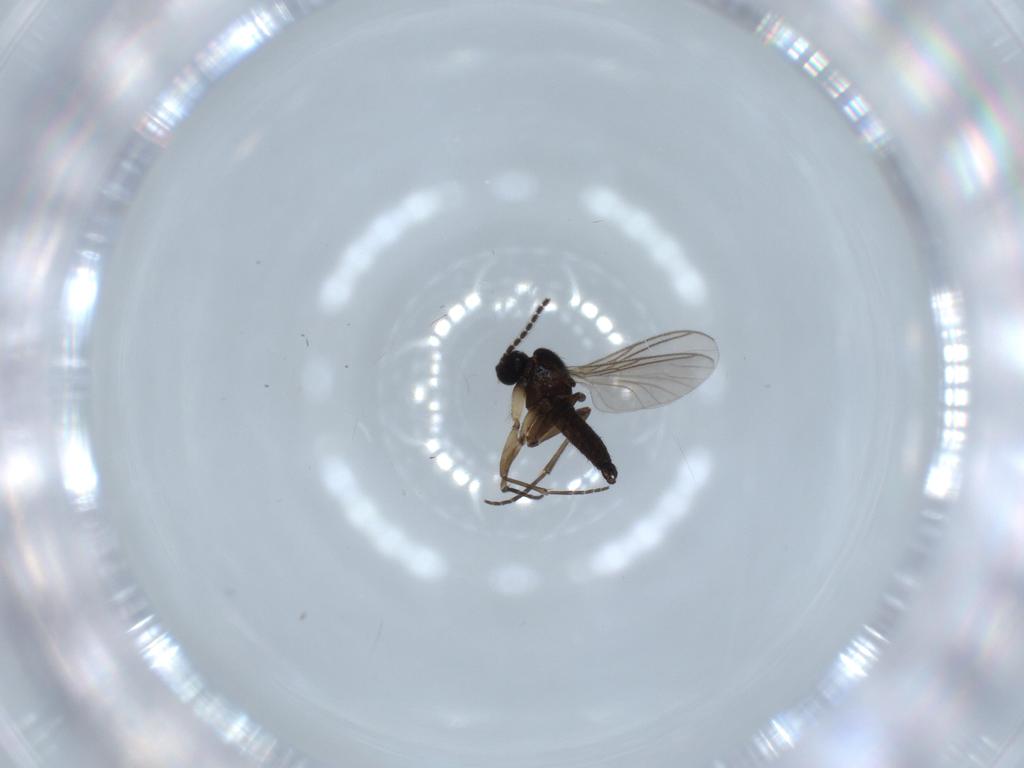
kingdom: Animalia
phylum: Arthropoda
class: Insecta
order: Diptera
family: Sciaridae
